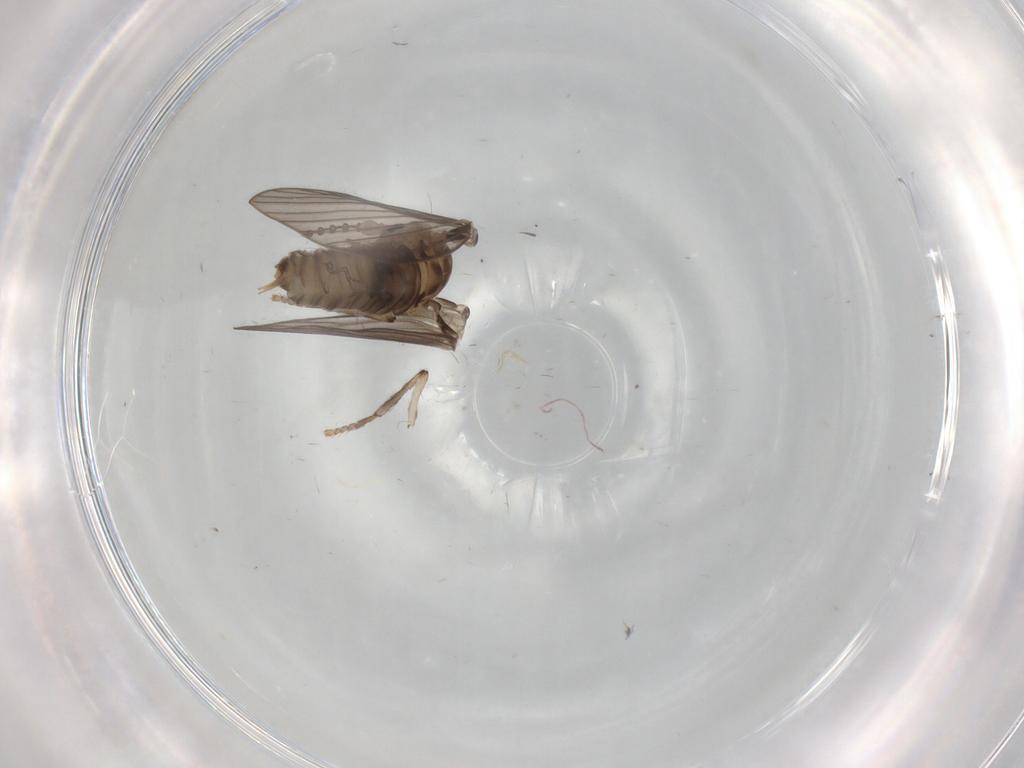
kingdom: Animalia
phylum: Arthropoda
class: Insecta
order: Diptera
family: Psychodidae
